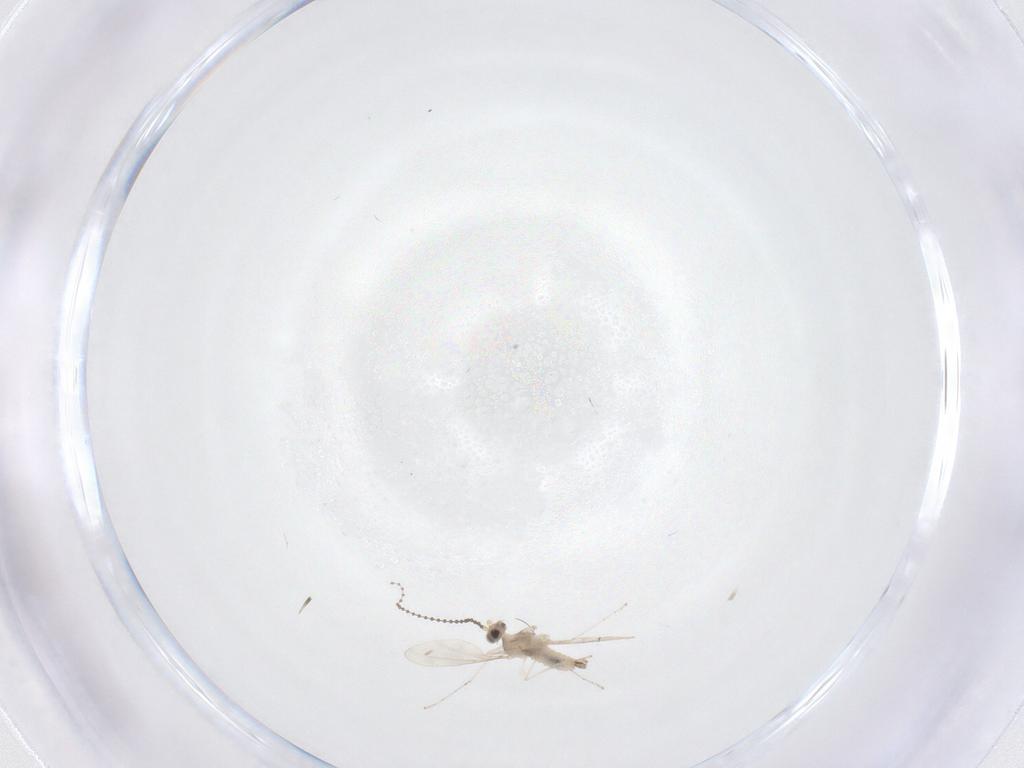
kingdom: Animalia
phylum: Arthropoda
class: Insecta
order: Diptera
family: Cecidomyiidae
